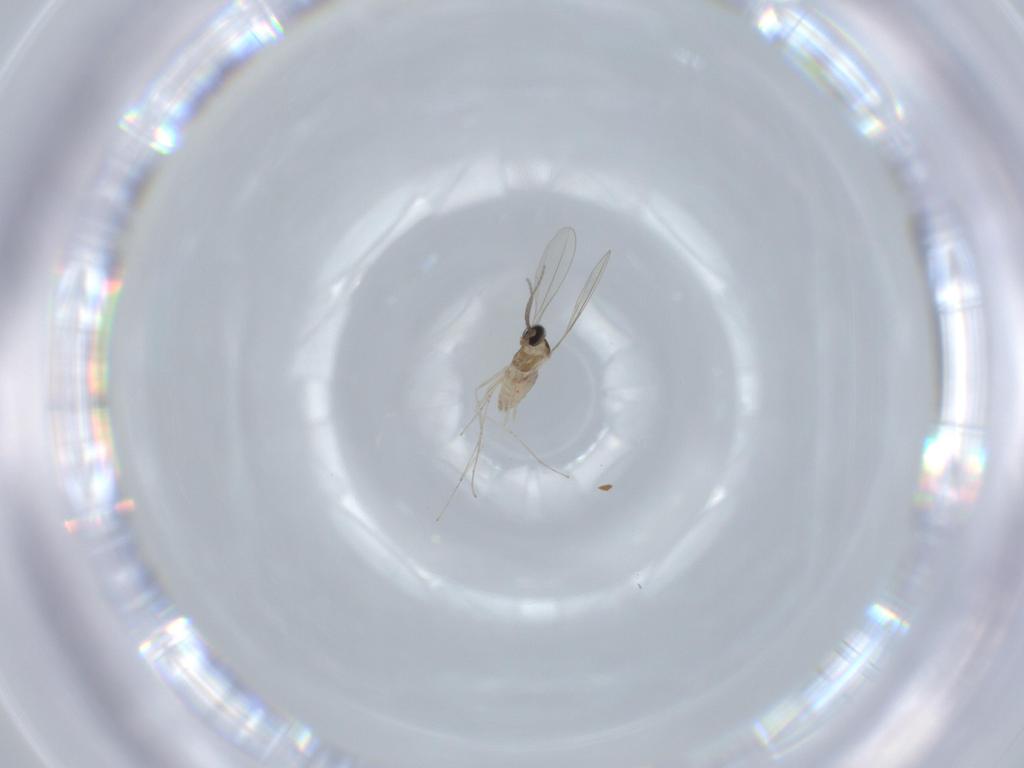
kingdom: Animalia
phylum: Arthropoda
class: Insecta
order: Diptera
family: Cecidomyiidae
